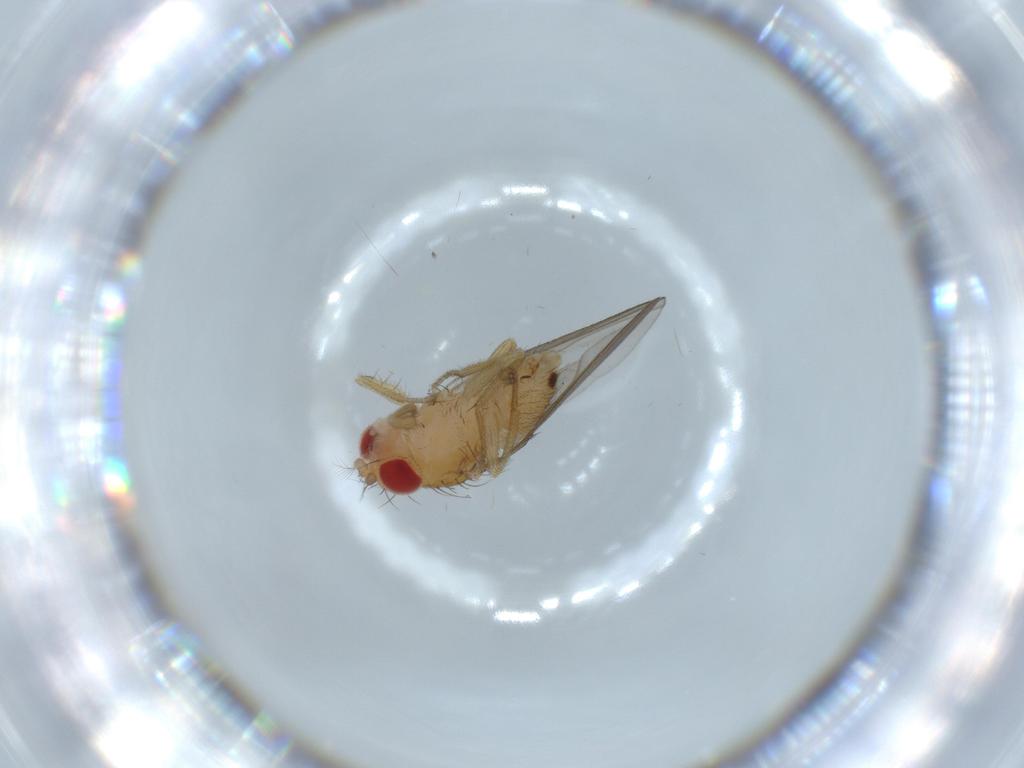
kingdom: Animalia
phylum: Arthropoda
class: Insecta
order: Diptera
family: Drosophilidae
